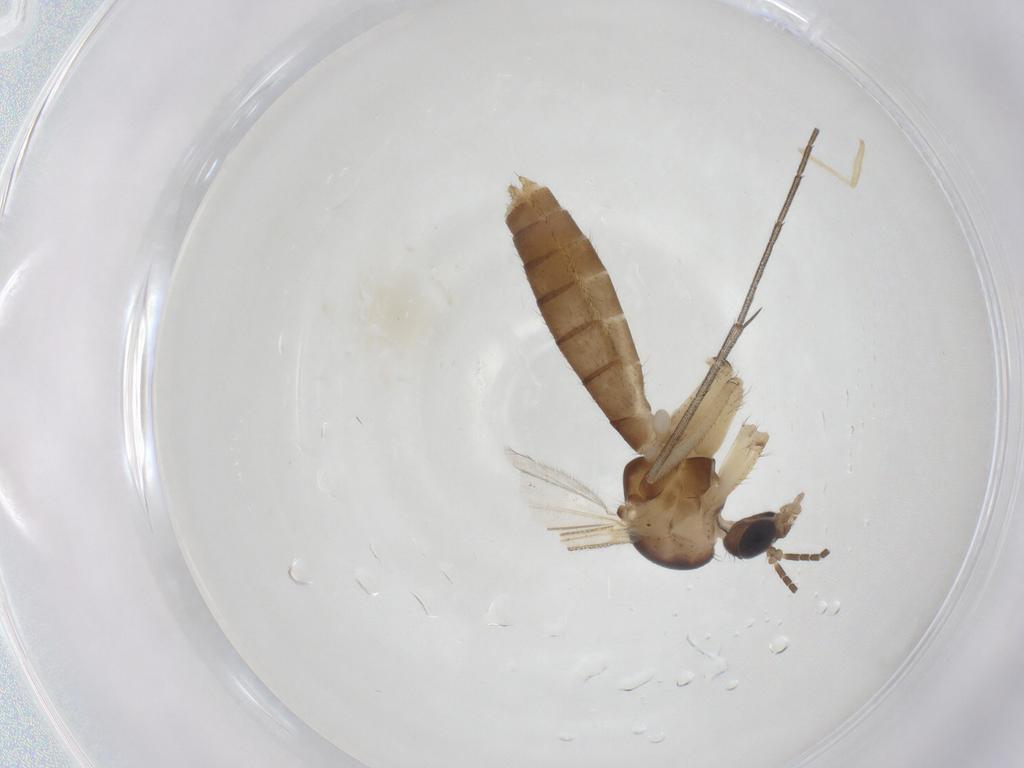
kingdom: Animalia
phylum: Arthropoda
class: Insecta
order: Diptera
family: Mycetophilidae
